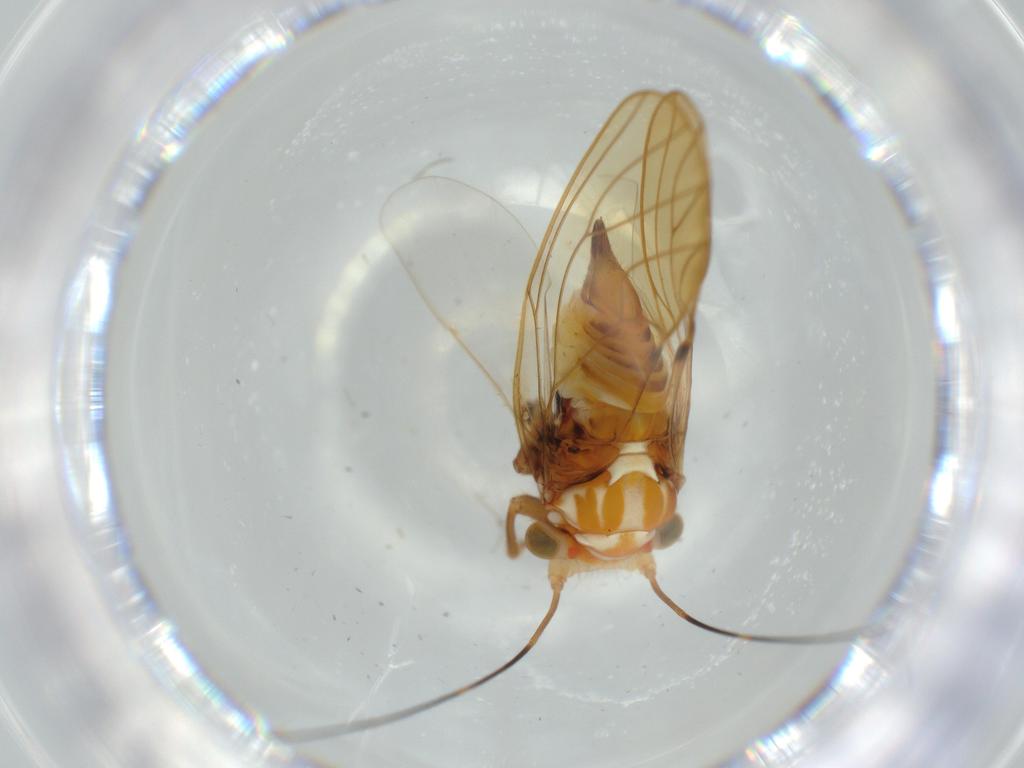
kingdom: Animalia
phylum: Arthropoda
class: Insecta
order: Hemiptera
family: Psyllidae
